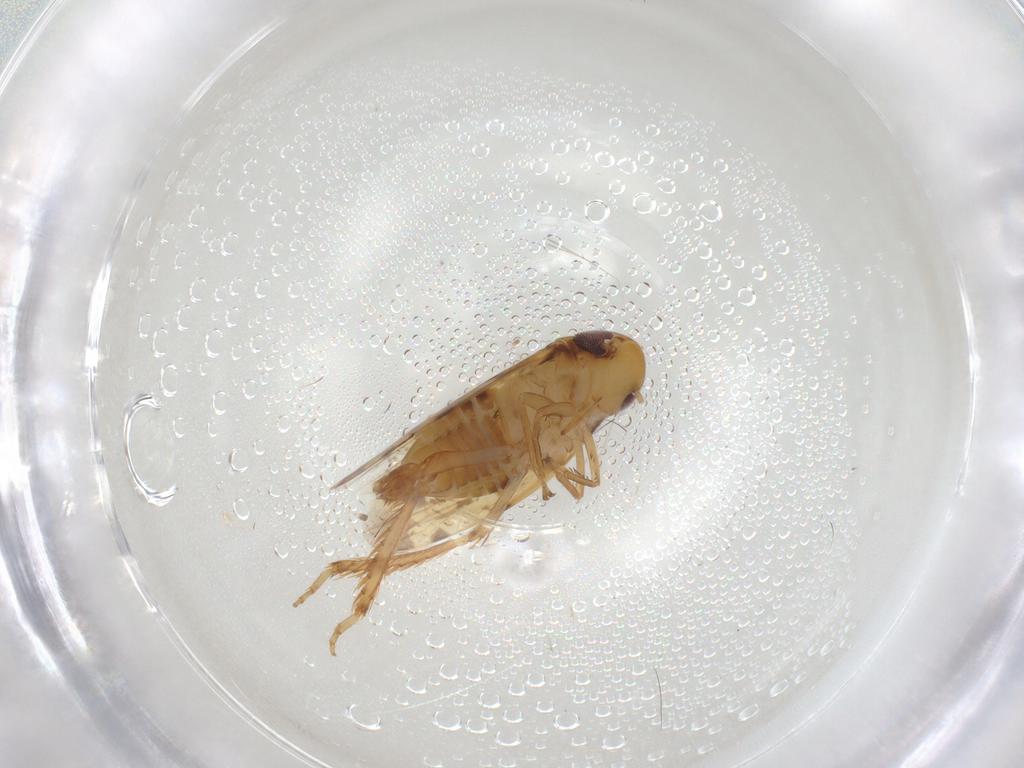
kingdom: Animalia
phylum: Arthropoda
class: Insecta
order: Hemiptera
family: Cicadellidae
